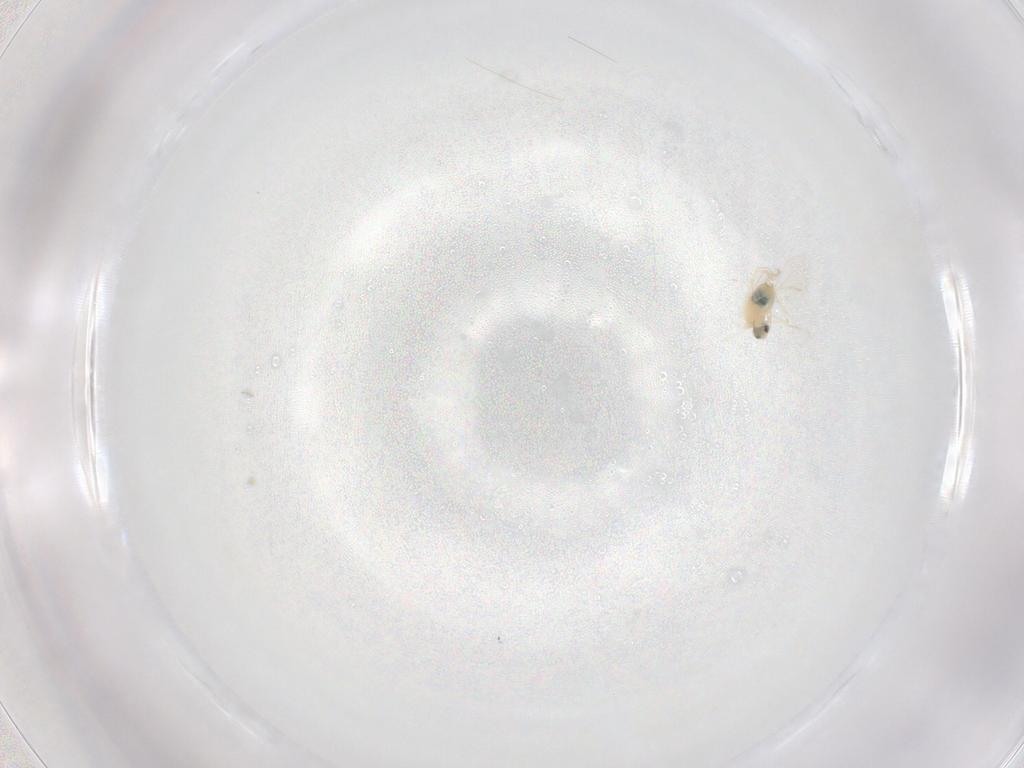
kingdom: Animalia
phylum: Arthropoda
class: Insecta
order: Diptera
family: Cecidomyiidae
